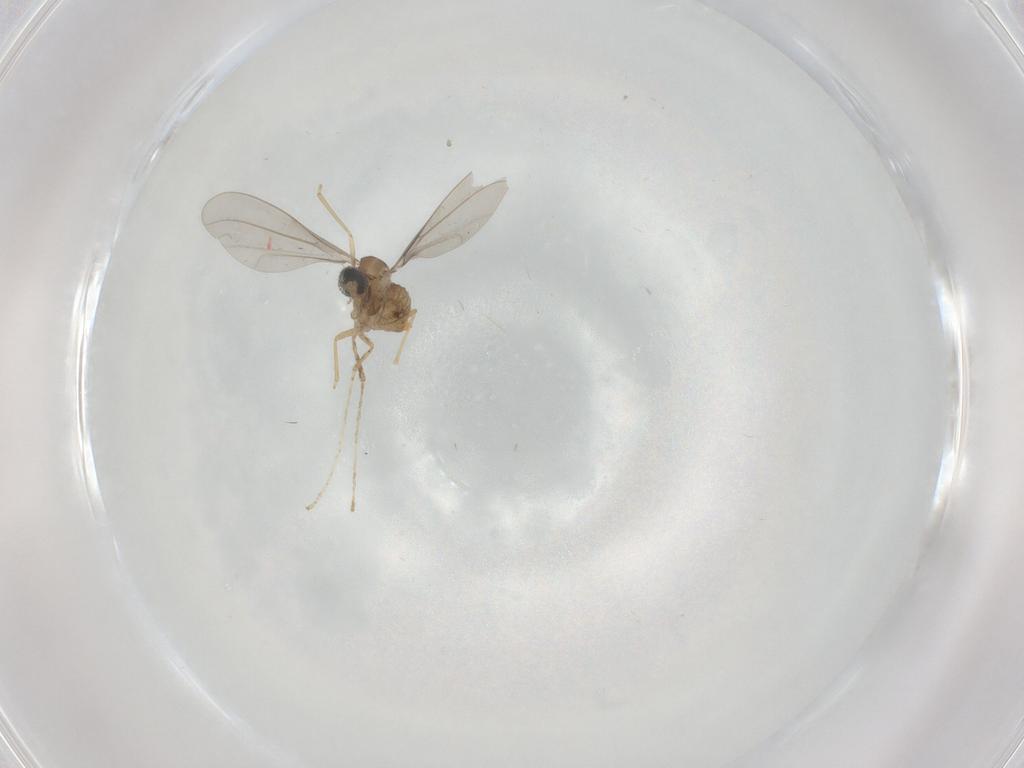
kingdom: Animalia
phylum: Arthropoda
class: Insecta
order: Diptera
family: Cecidomyiidae
